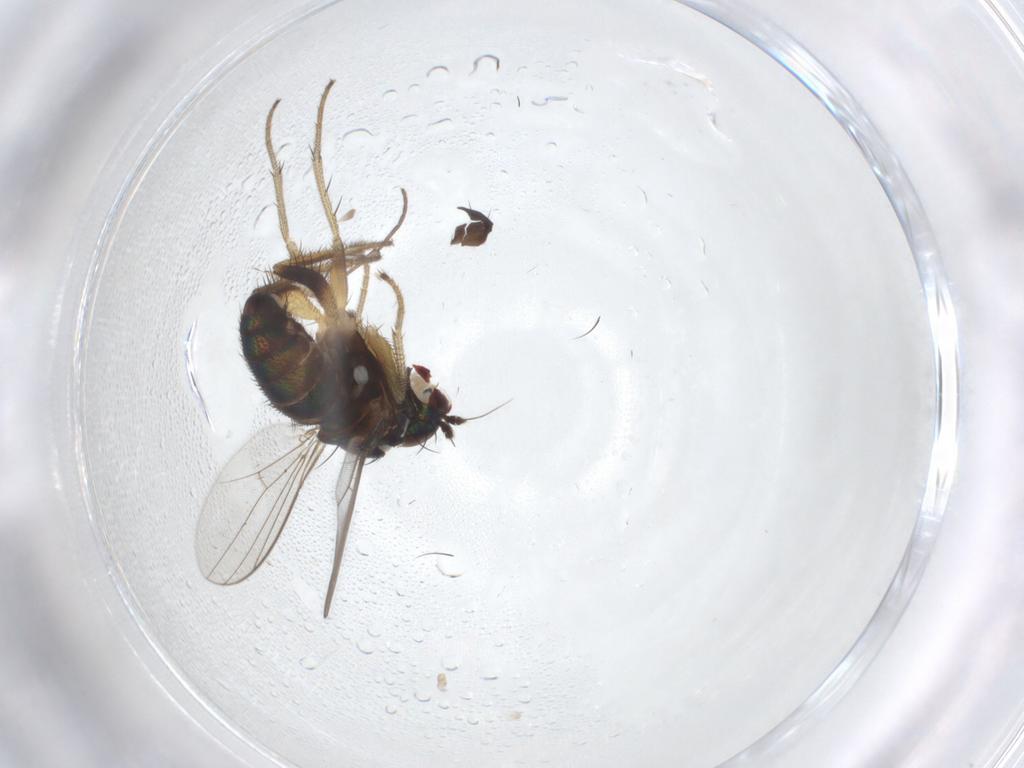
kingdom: Animalia
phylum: Arthropoda
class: Insecta
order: Diptera
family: Sciaridae
